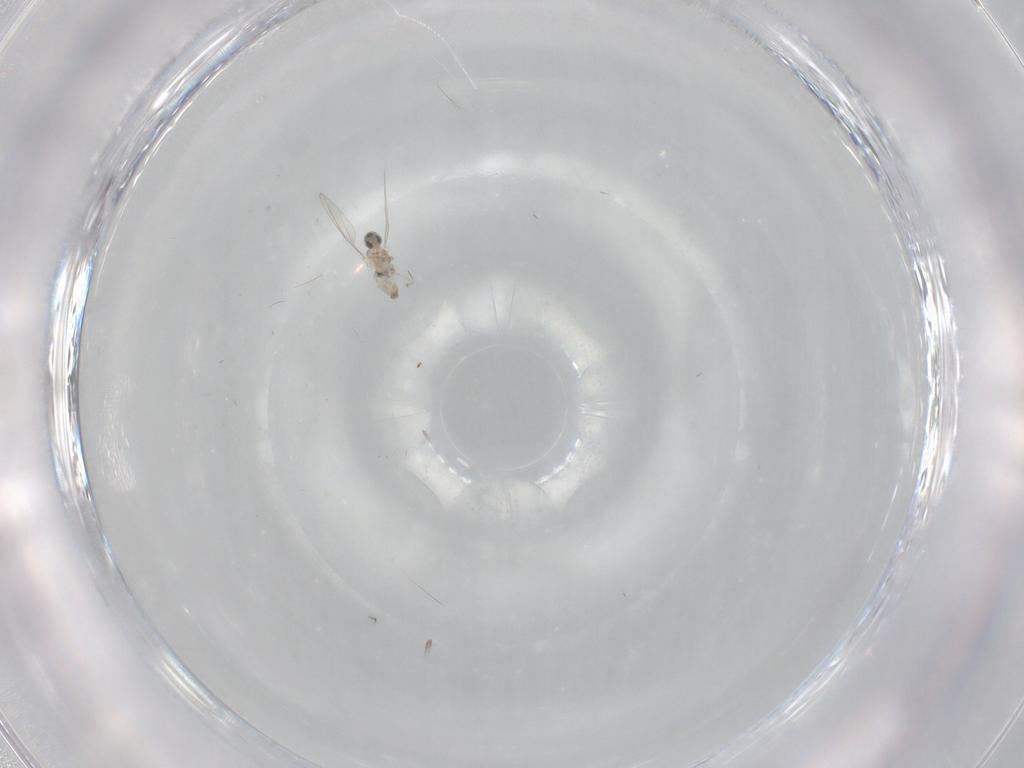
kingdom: Animalia
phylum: Arthropoda
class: Insecta
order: Diptera
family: Cecidomyiidae
